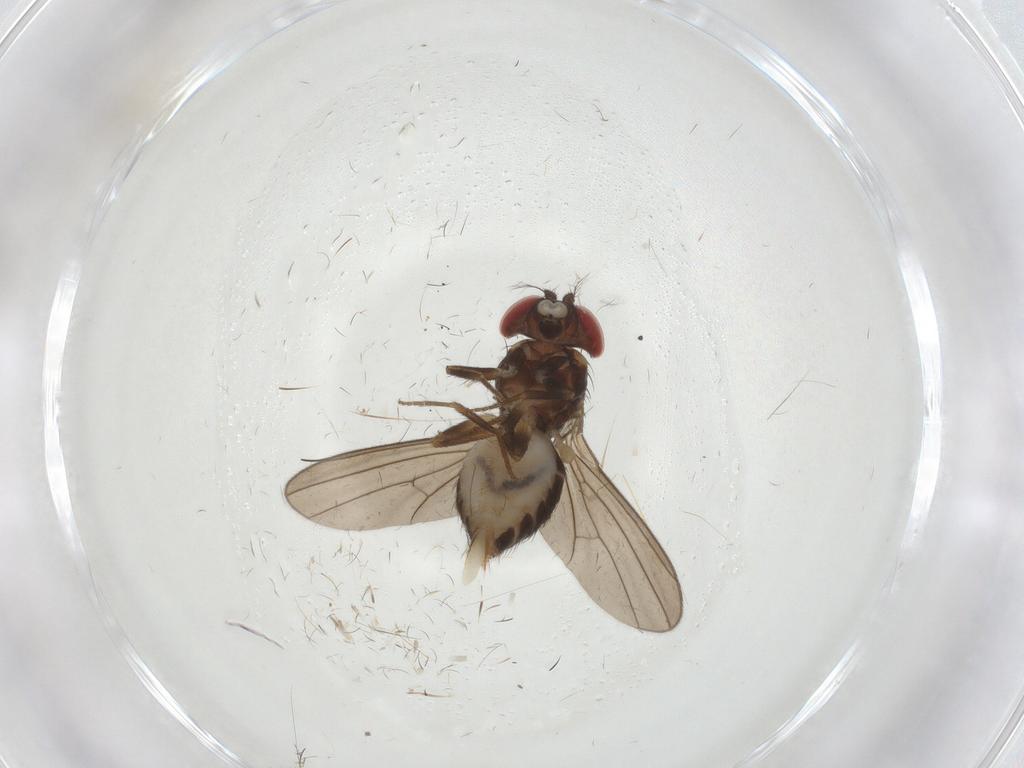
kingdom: Animalia
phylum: Arthropoda
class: Insecta
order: Diptera
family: Drosophilidae
